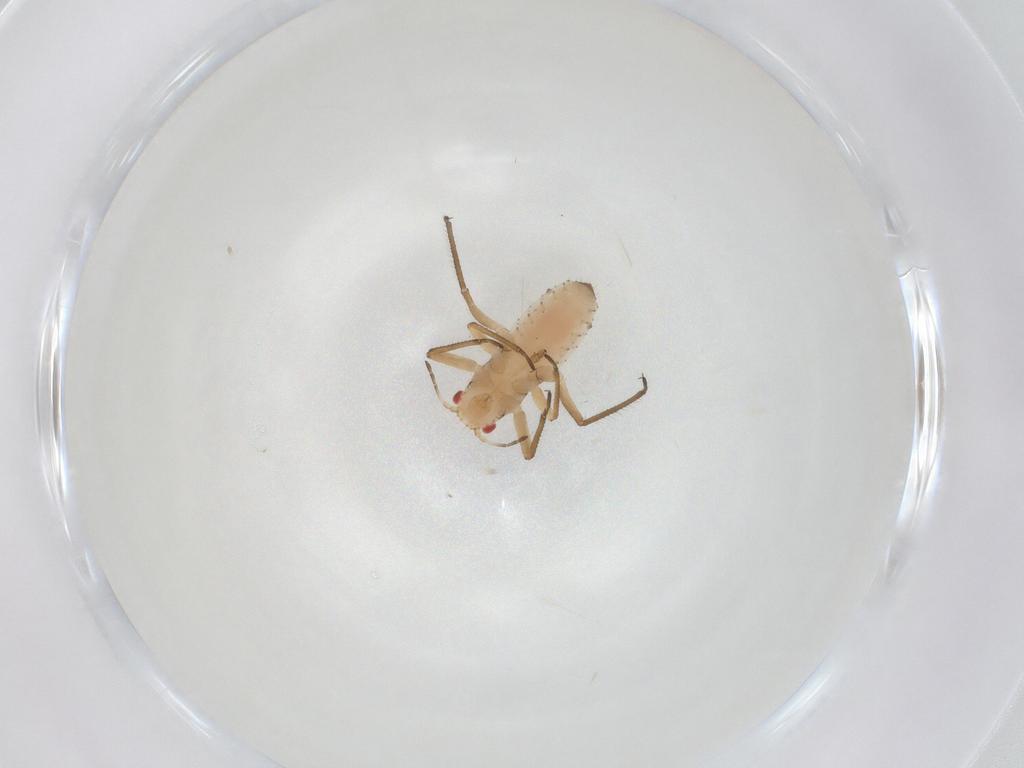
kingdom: Animalia
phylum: Arthropoda
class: Insecta
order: Hemiptera
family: Aphididae
